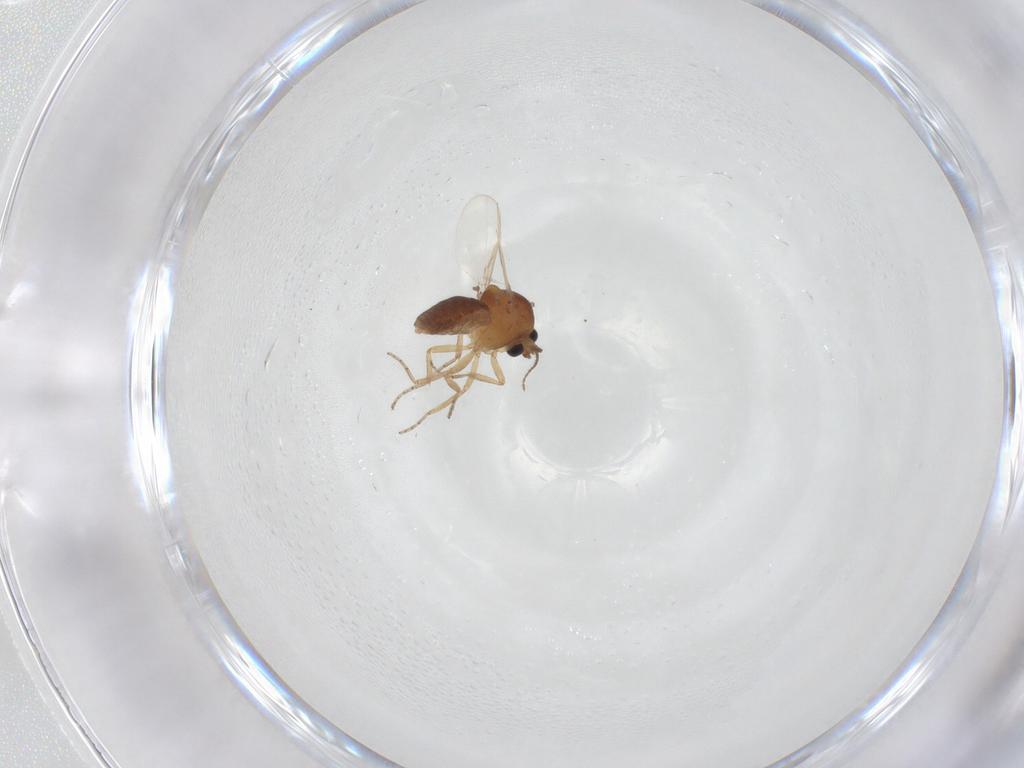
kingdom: Animalia
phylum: Arthropoda
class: Insecta
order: Diptera
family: Ceratopogonidae
